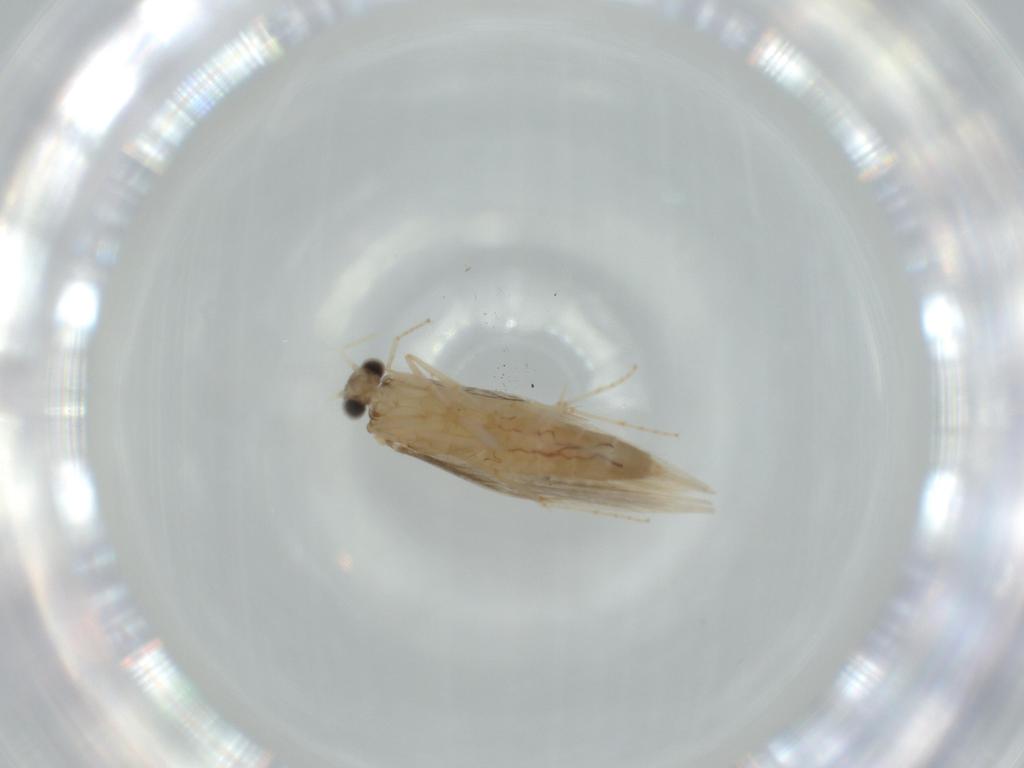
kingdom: Animalia
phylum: Arthropoda
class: Insecta
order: Trichoptera
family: Hydroptilidae
